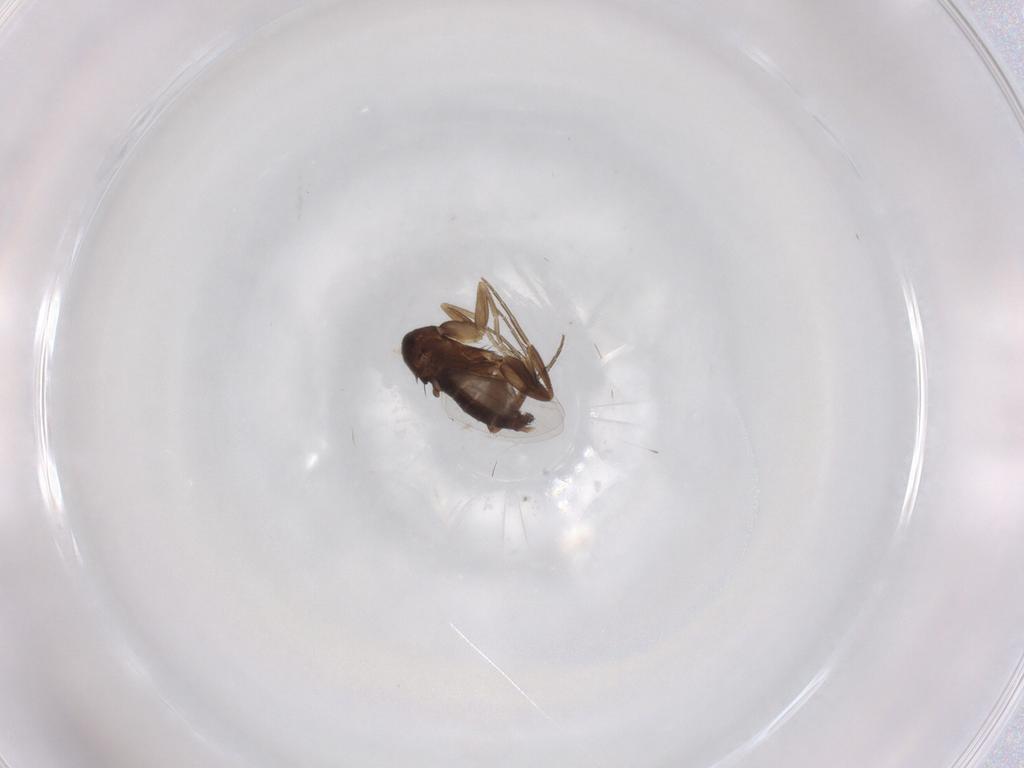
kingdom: Animalia
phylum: Arthropoda
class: Insecta
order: Diptera
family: Phoridae
